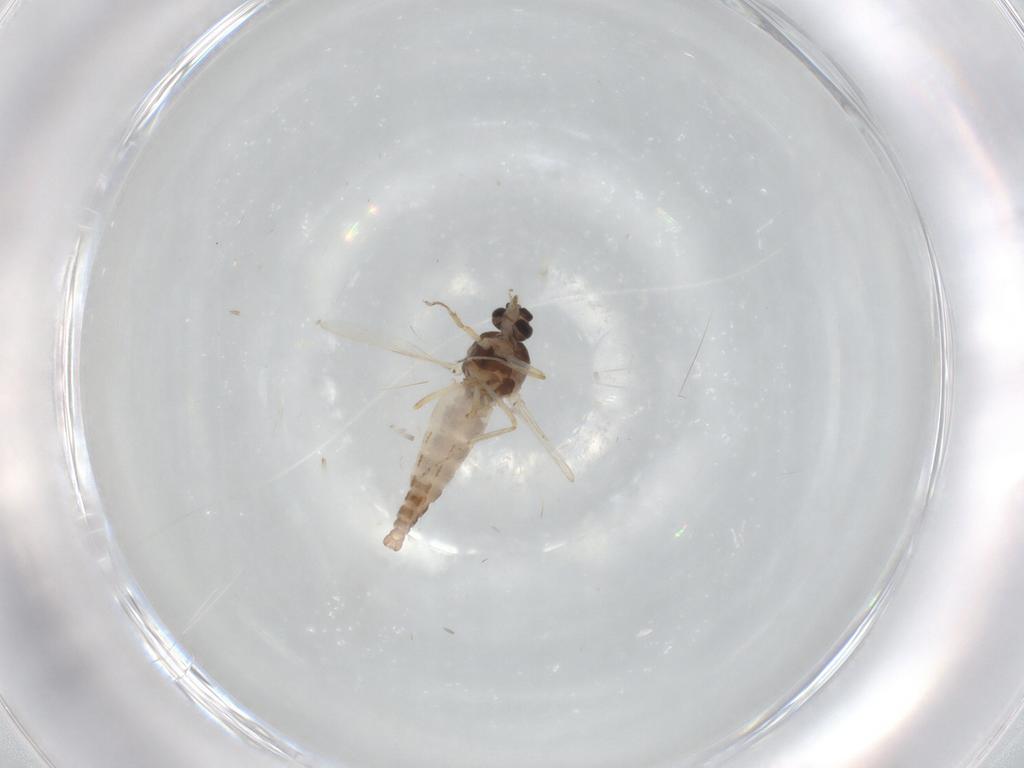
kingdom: Animalia
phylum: Arthropoda
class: Insecta
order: Diptera
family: Ceratopogonidae
